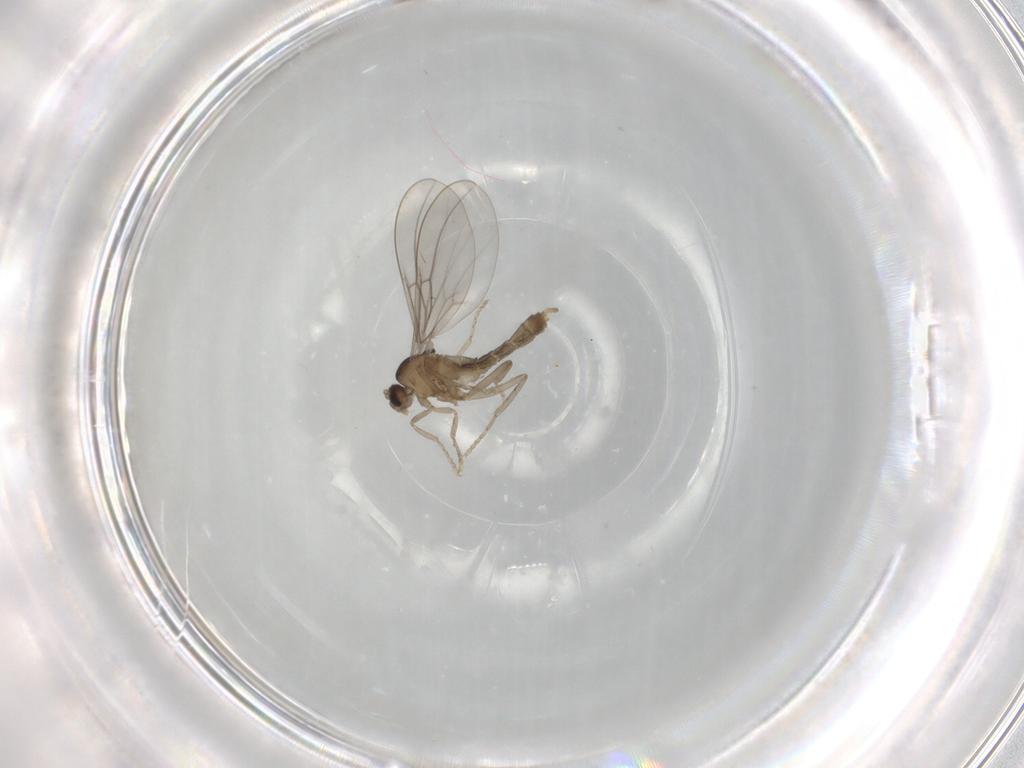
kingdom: Animalia
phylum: Arthropoda
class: Insecta
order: Diptera
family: Cecidomyiidae
